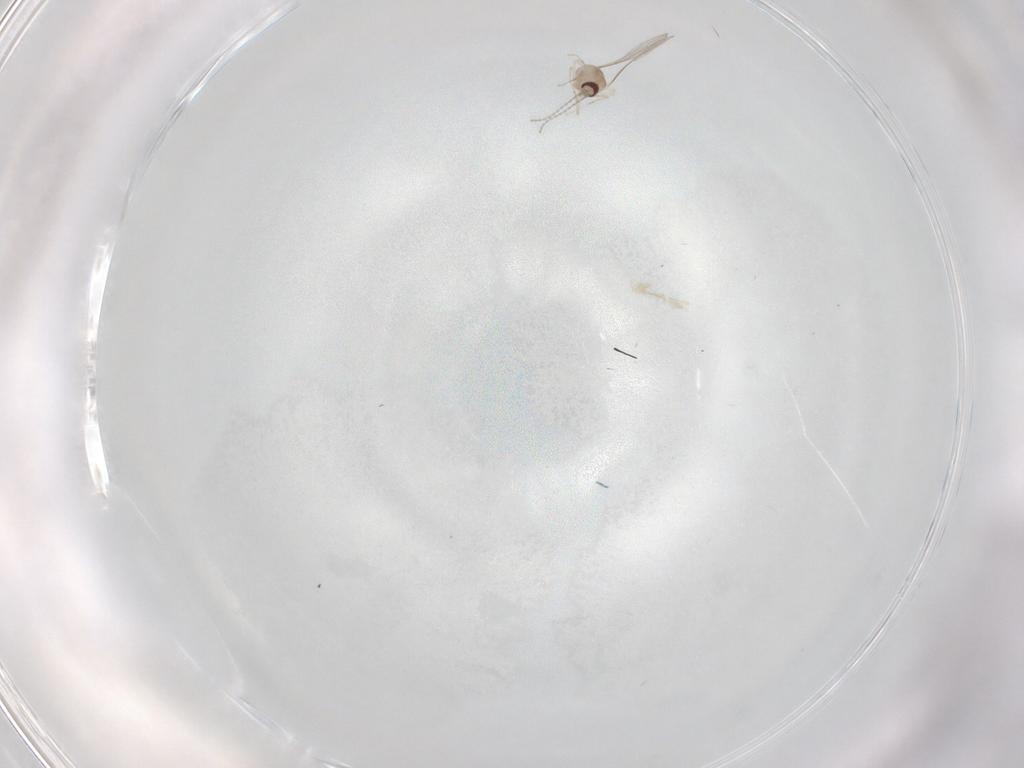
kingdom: Animalia
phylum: Arthropoda
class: Insecta
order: Diptera
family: Cecidomyiidae
